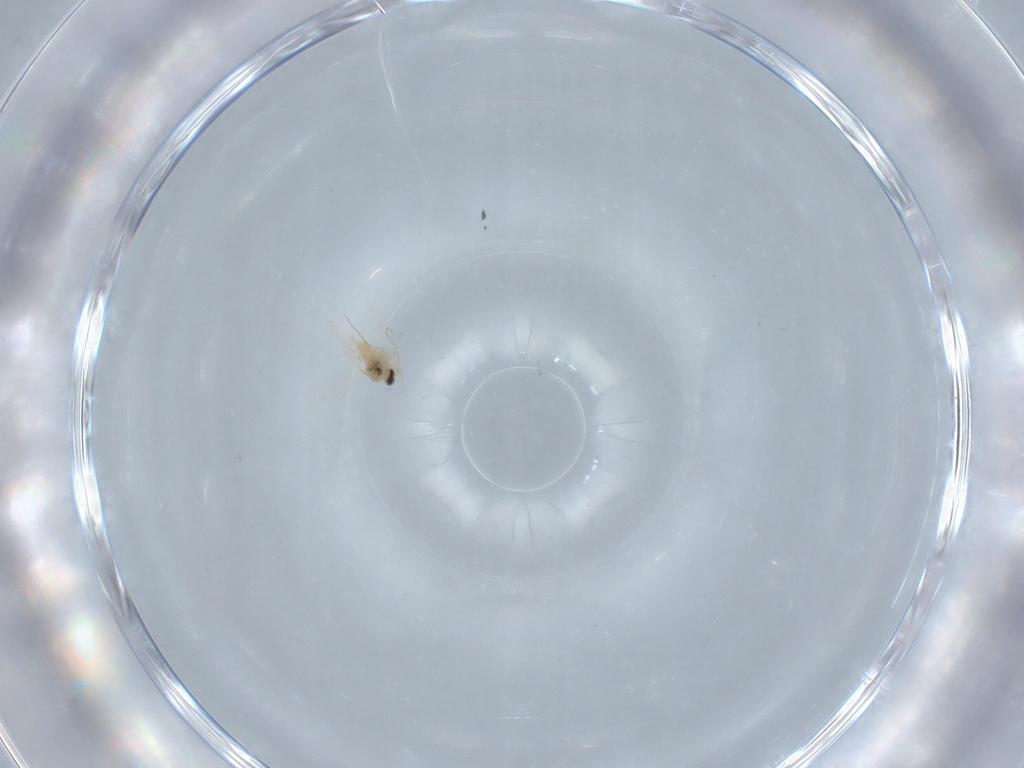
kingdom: Animalia
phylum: Arthropoda
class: Insecta
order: Diptera
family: Cecidomyiidae
